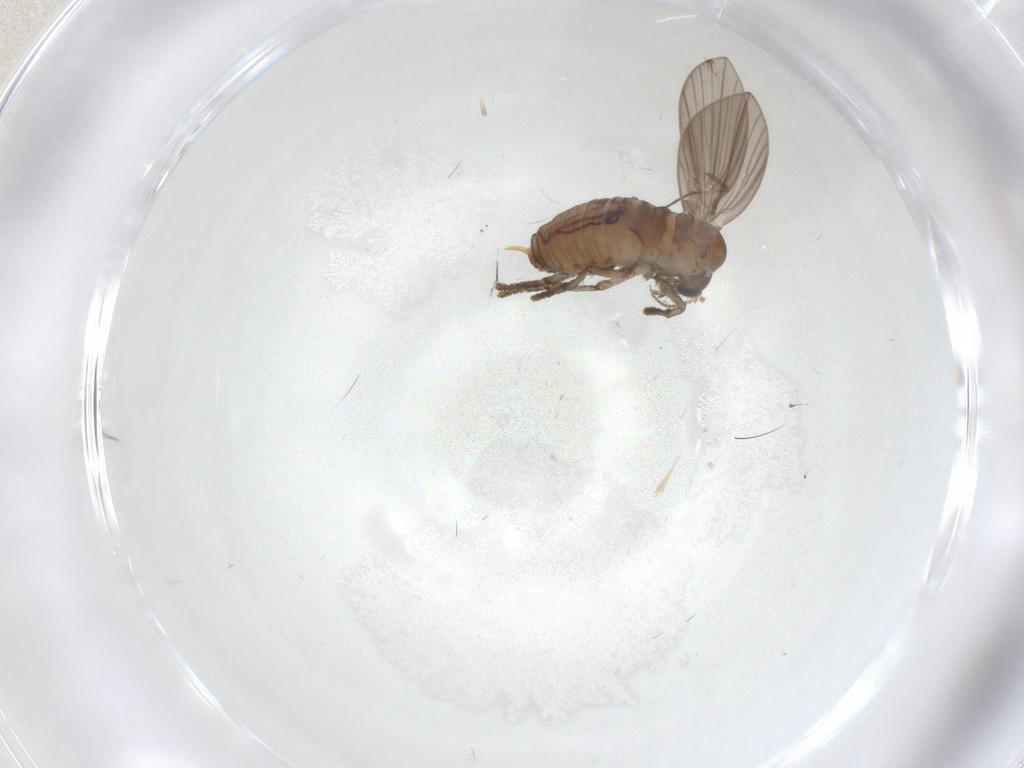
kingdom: Animalia
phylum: Arthropoda
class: Insecta
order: Diptera
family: Psychodidae
